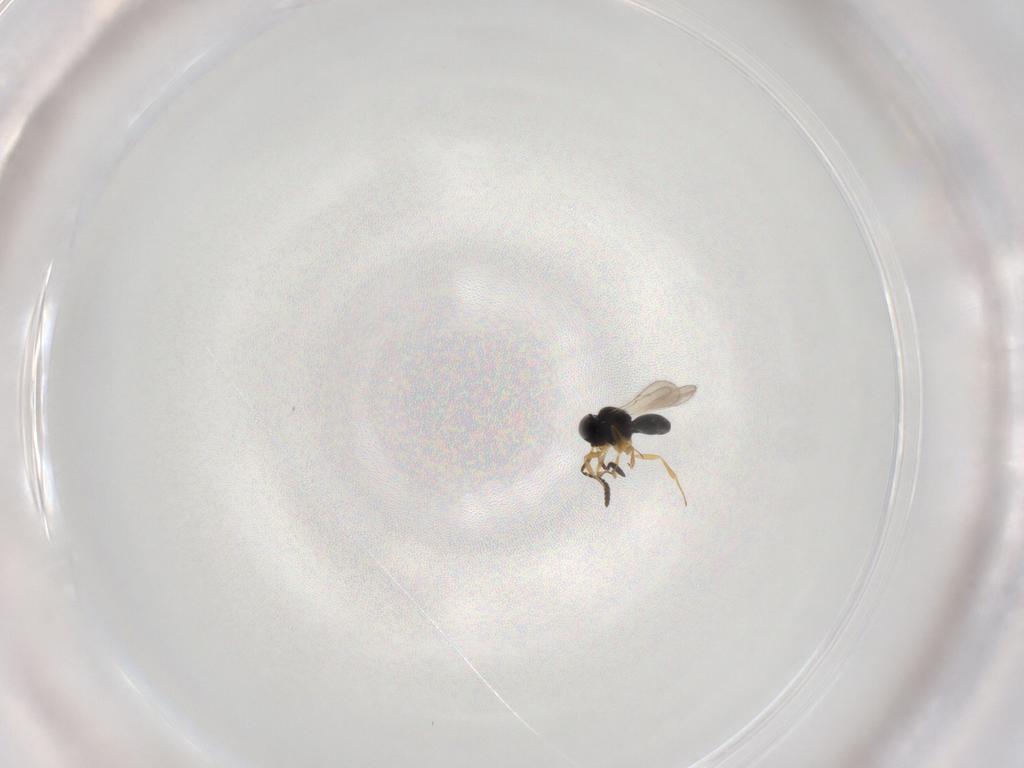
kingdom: Animalia
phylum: Arthropoda
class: Insecta
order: Hymenoptera
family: Scelionidae
